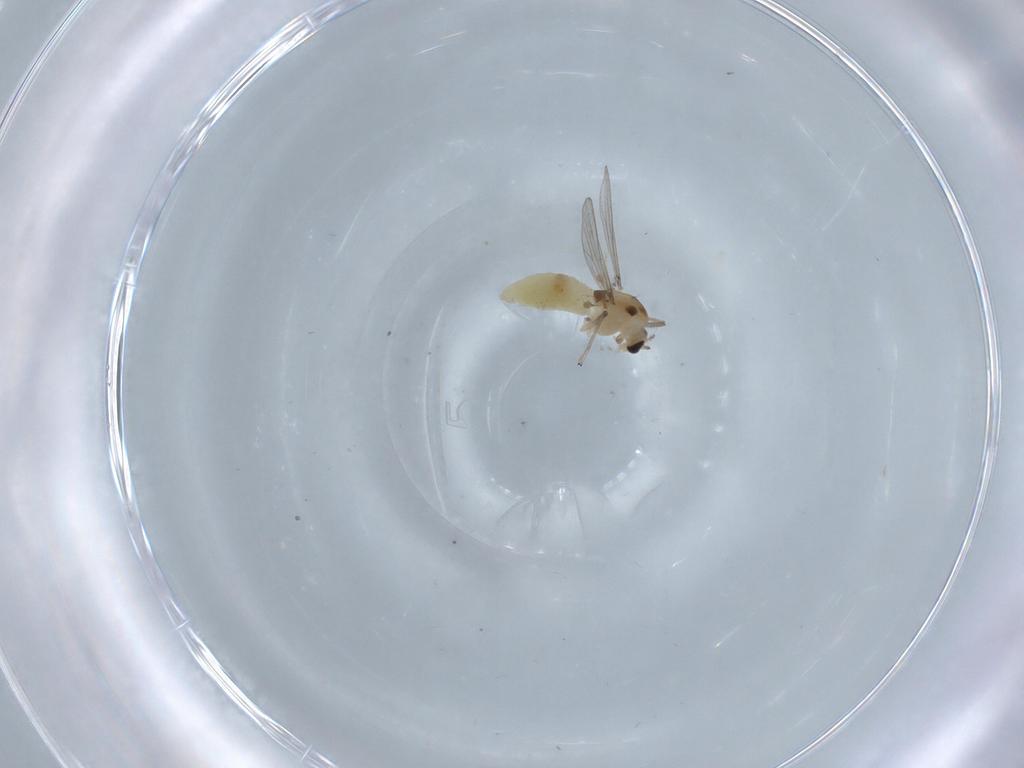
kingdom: Animalia
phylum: Arthropoda
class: Insecta
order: Diptera
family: Chironomidae
